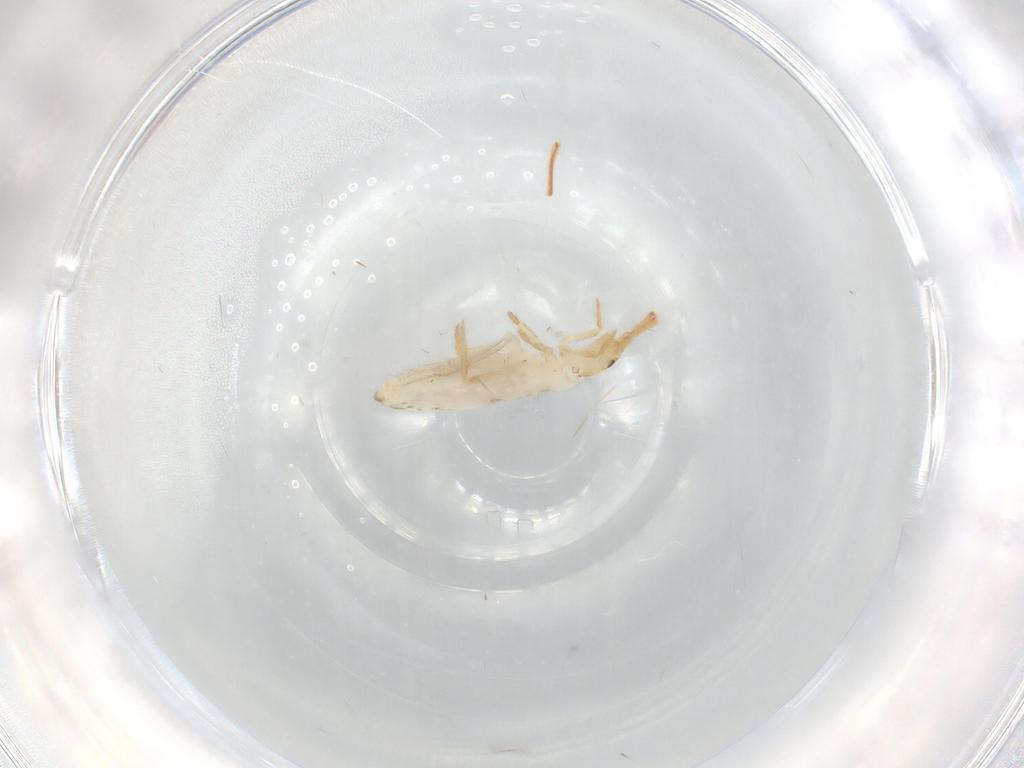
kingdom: Animalia
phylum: Arthropoda
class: Collembola
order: Entomobryomorpha
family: Entomobryidae
